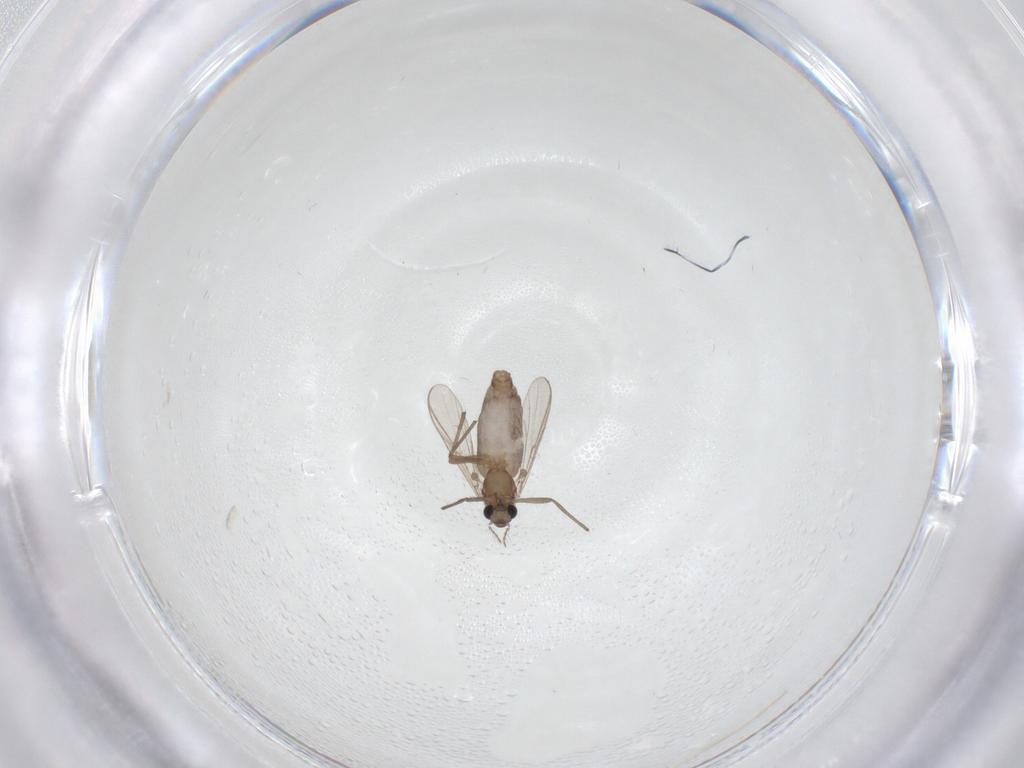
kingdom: Animalia
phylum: Arthropoda
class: Insecta
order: Diptera
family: Chironomidae
